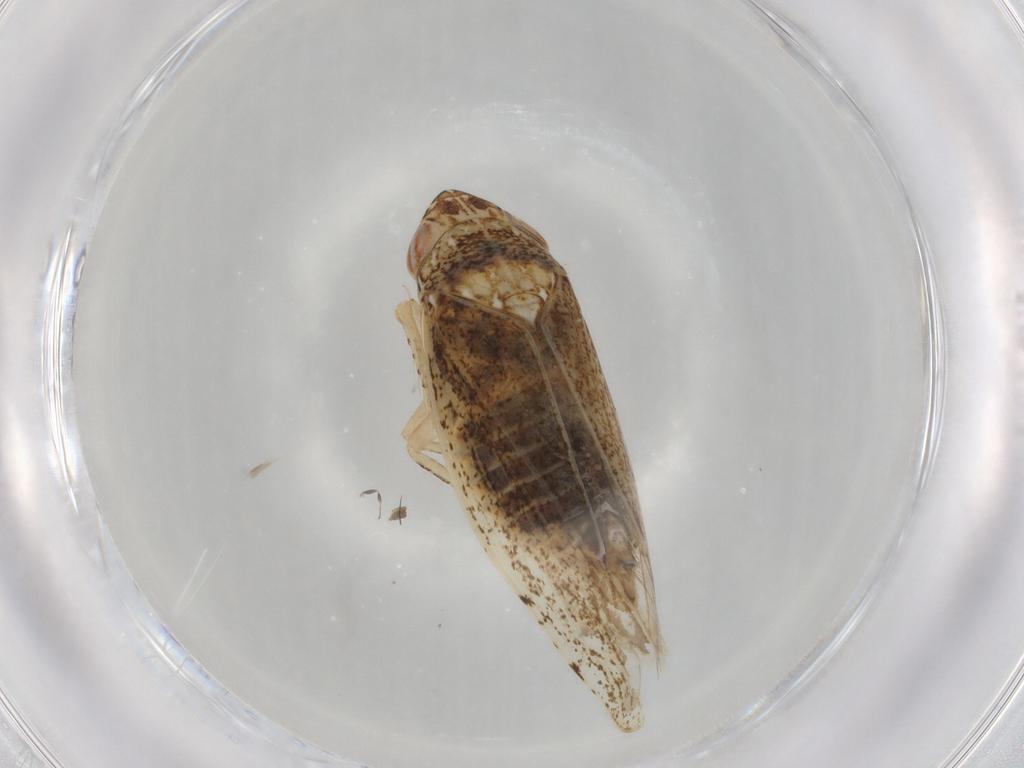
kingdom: Animalia
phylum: Arthropoda
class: Insecta
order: Hemiptera
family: Cicadellidae
